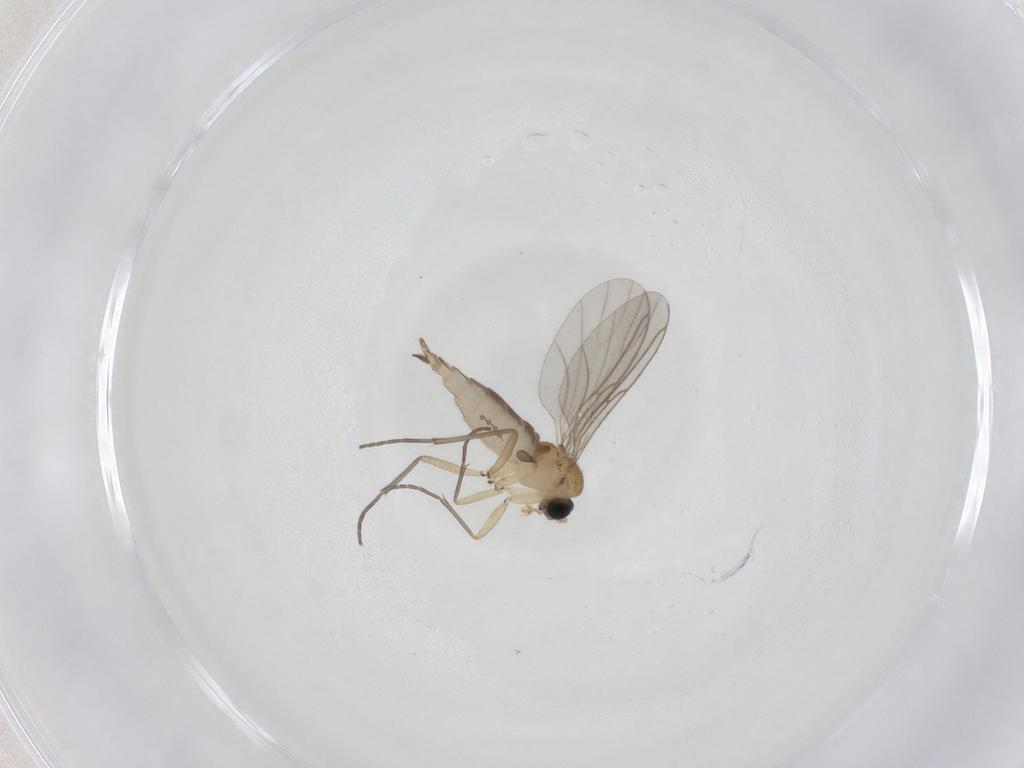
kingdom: Animalia
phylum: Arthropoda
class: Insecta
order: Diptera
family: Sciaridae
